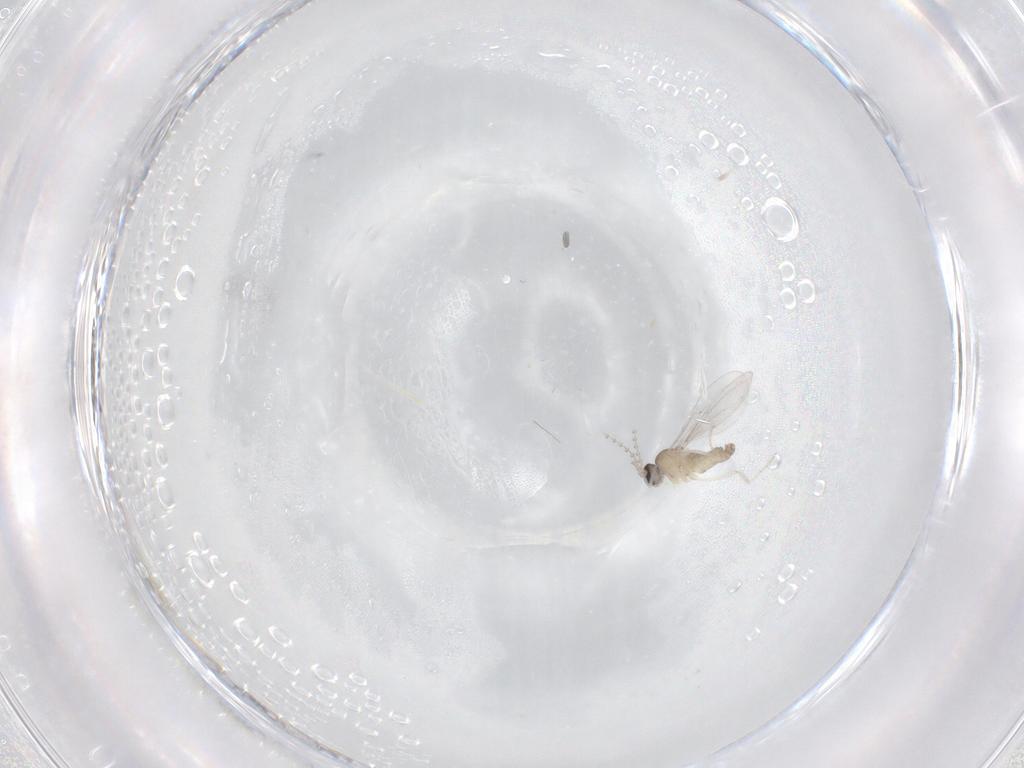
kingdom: Animalia
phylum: Arthropoda
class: Insecta
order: Diptera
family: Cecidomyiidae
